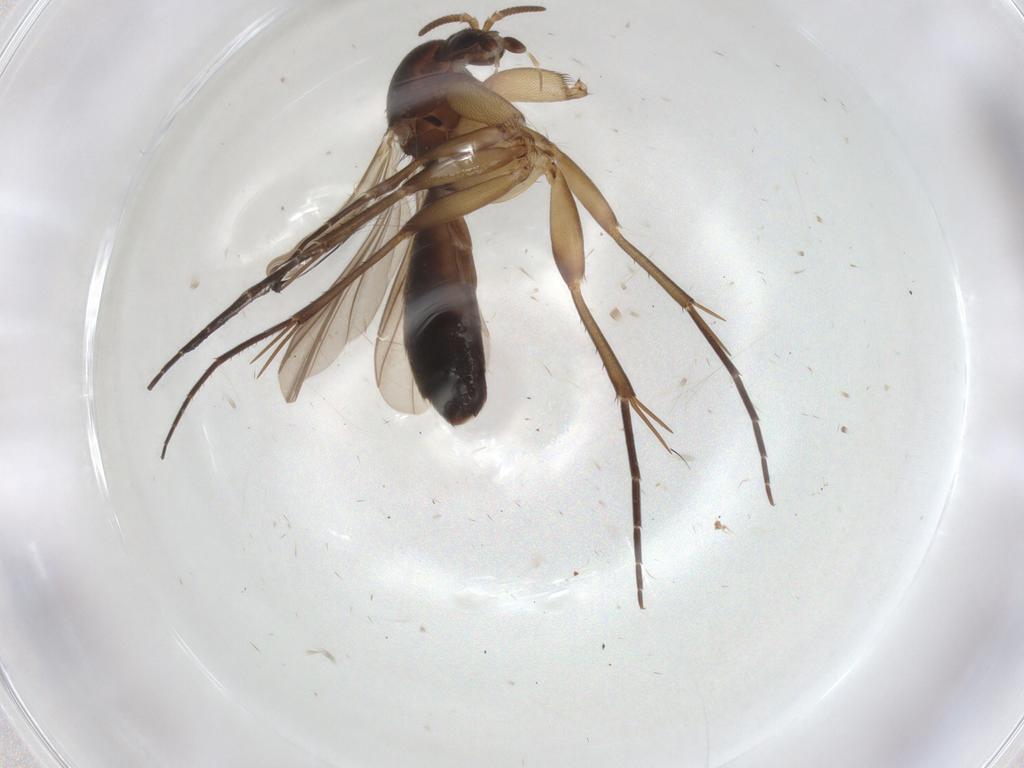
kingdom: Animalia
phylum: Arthropoda
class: Insecta
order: Diptera
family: Mycetophilidae
